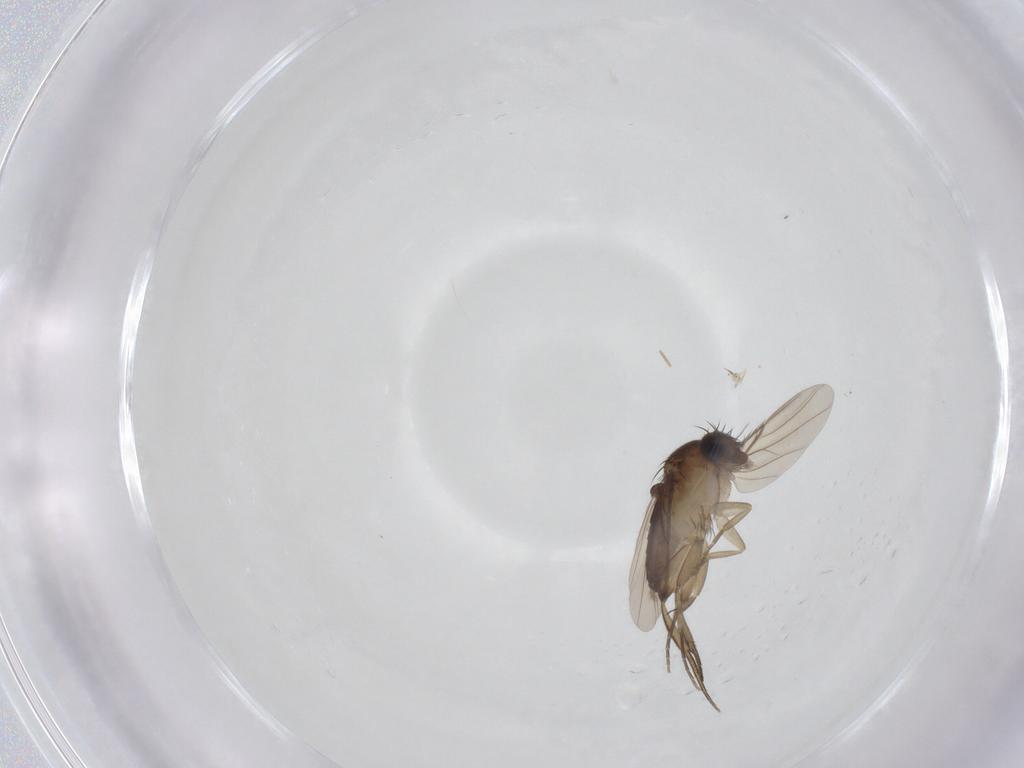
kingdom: Animalia
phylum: Arthropoda
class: Insecta
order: Diptera
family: Phoridae
